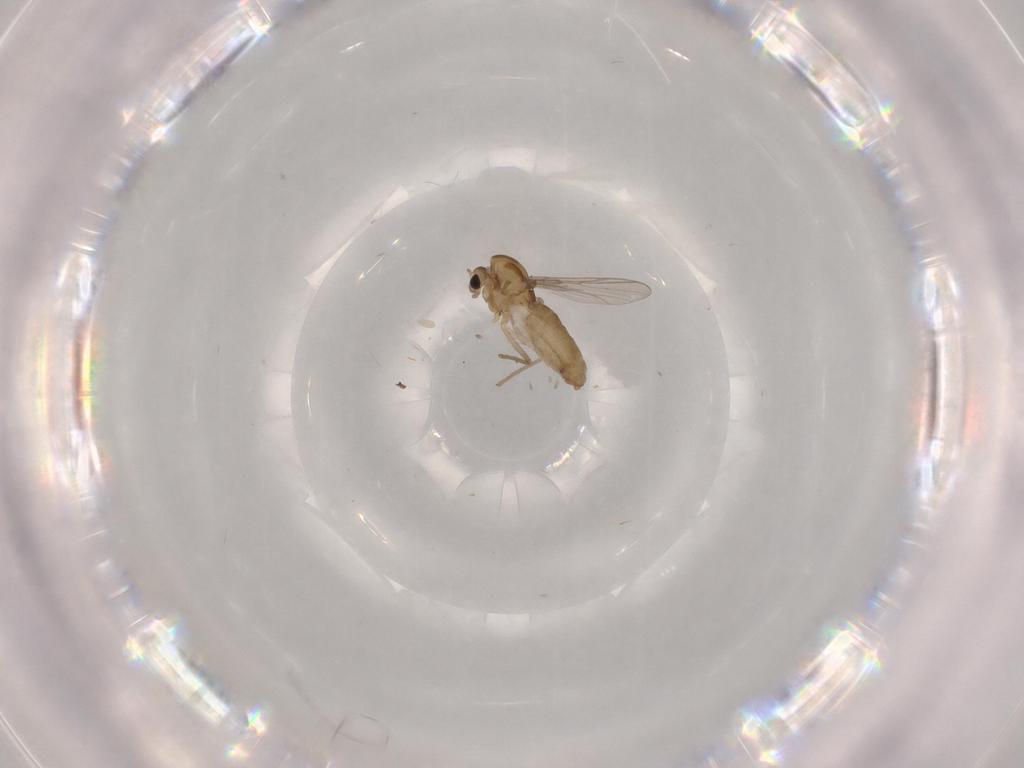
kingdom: Animalia
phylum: Arthropoda
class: Insecta
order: Diptera
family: Chironomidae
